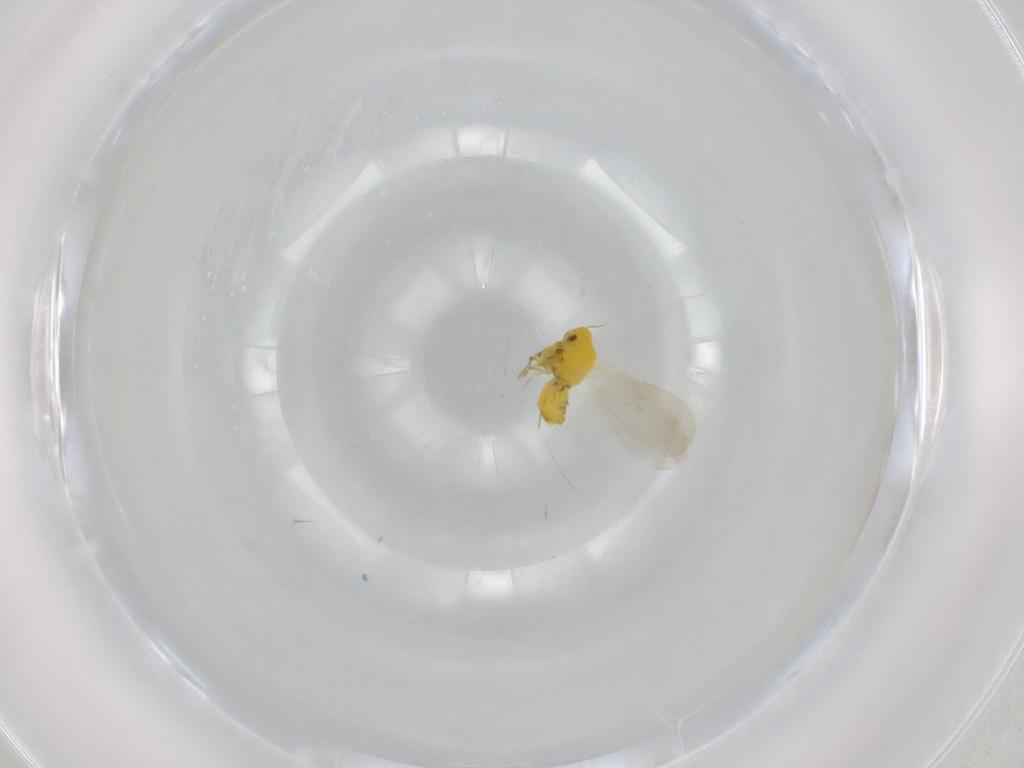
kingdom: Animalia
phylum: Arthropoda
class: Insecta
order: Hemiptera
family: Aleyrodidae
